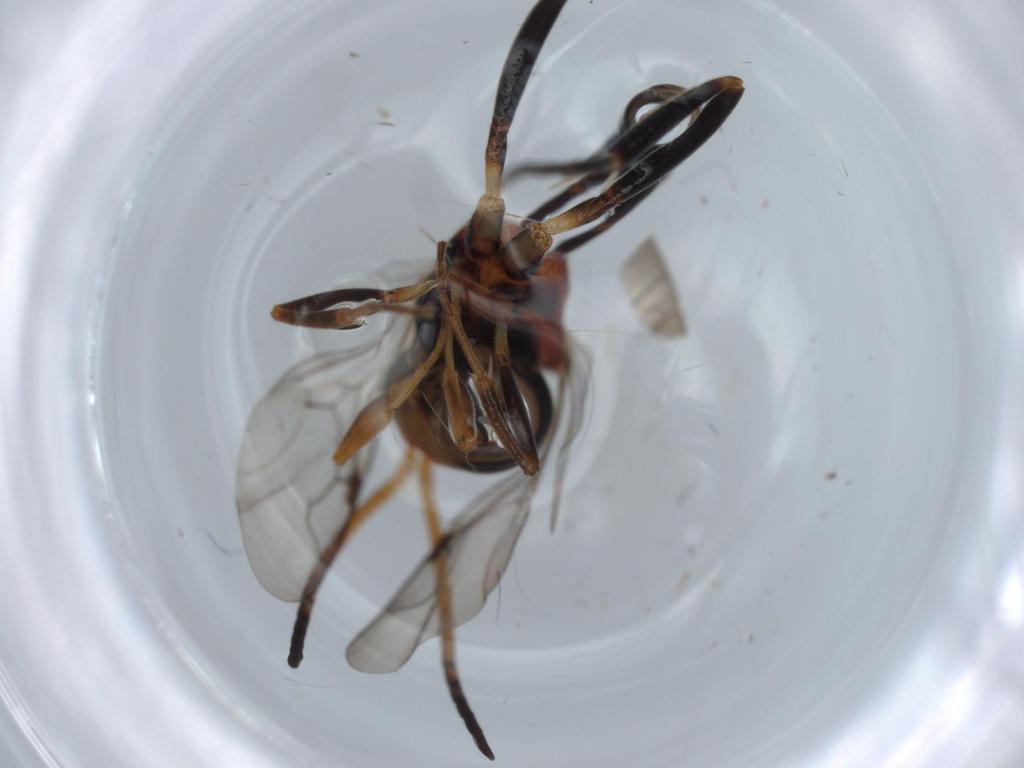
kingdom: Animalia
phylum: Arthropoda
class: Insecta
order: Hymenoptera
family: Evaniidae
